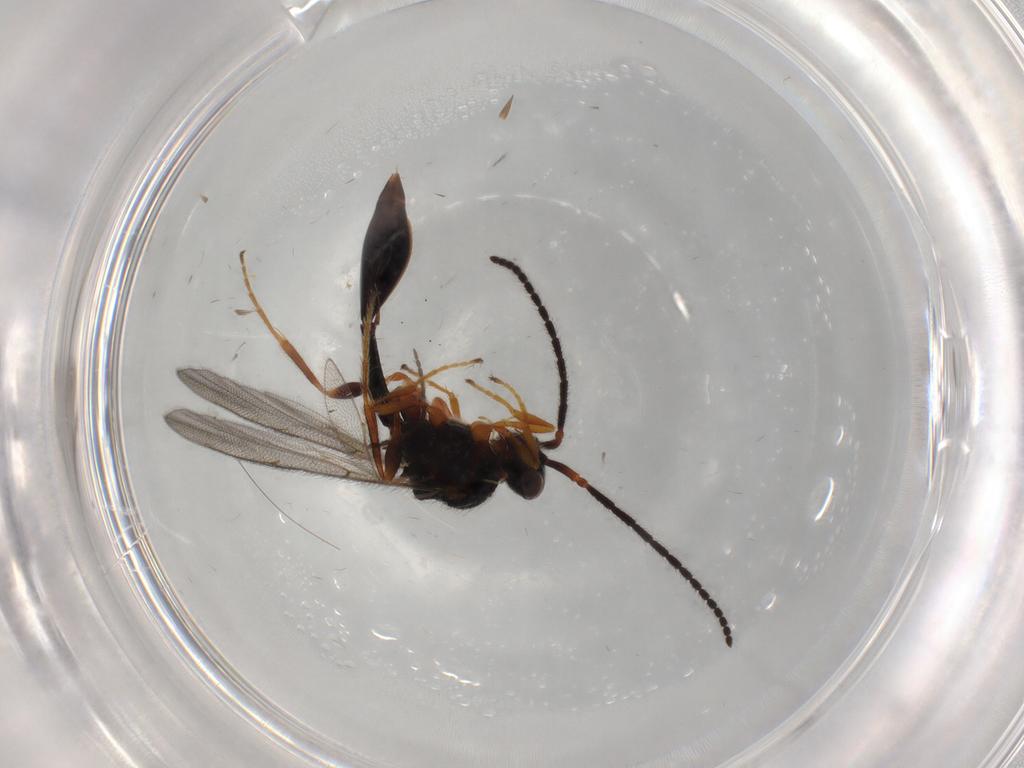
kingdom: Animalia
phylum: Arthropoda
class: Insecta
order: Hymenoptera
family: Diapriidae
